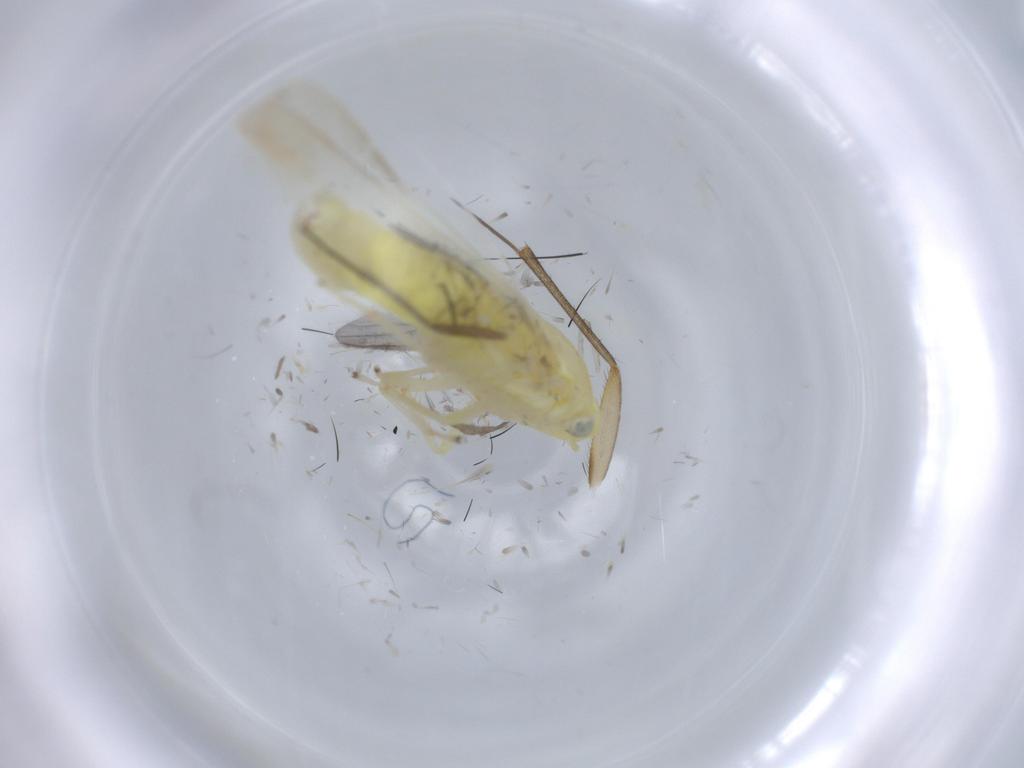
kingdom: Animalia
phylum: Arthropoda
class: Insecta
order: Hemiptera
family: Cicadellidae
